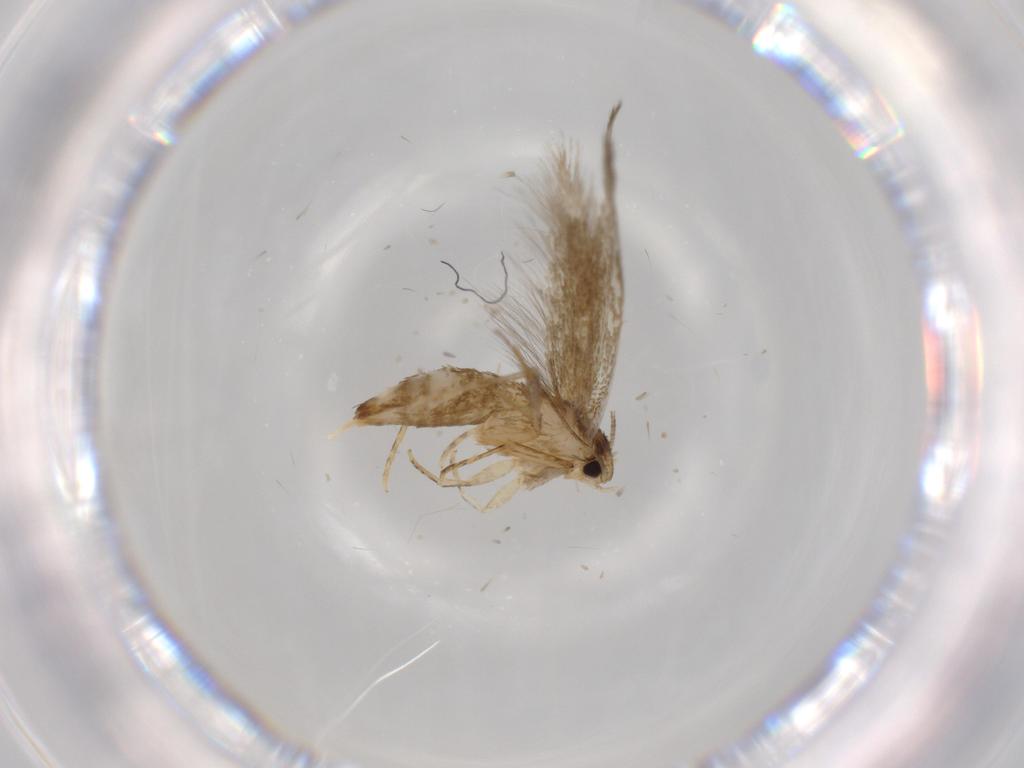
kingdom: Animalia
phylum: Arthropoda
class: Insecta
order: Lepidoptera
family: Tineidae
